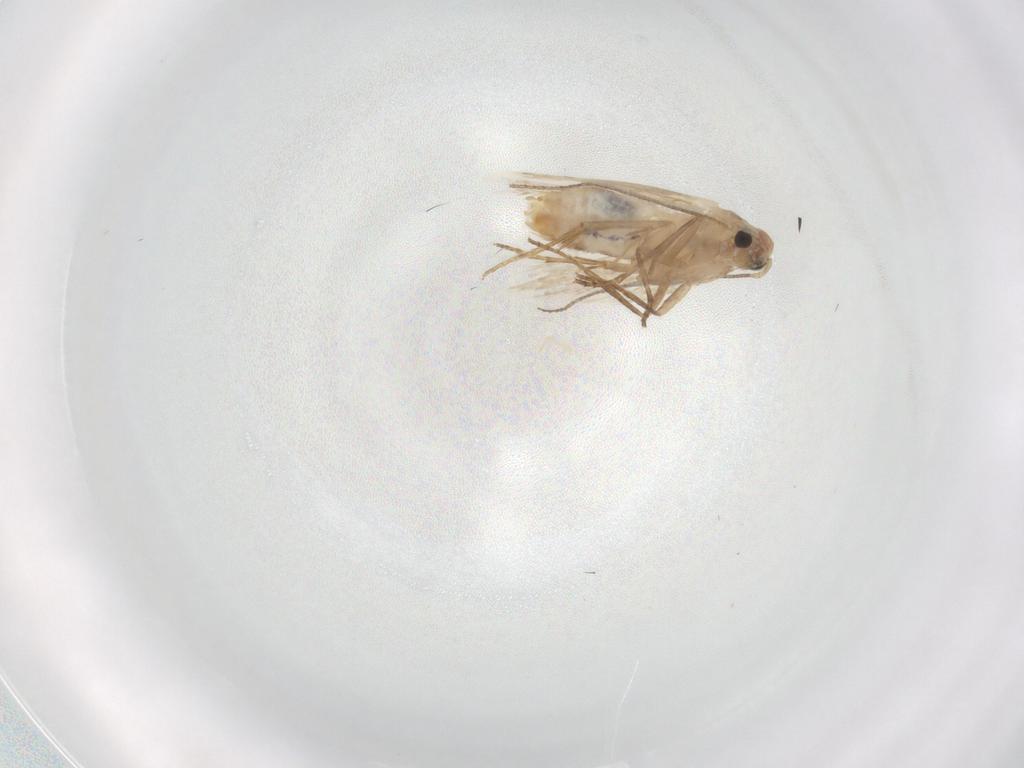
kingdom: Animalia
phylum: Arthropoda
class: Insecta
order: Lepidoptera
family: Bucculatricidae
